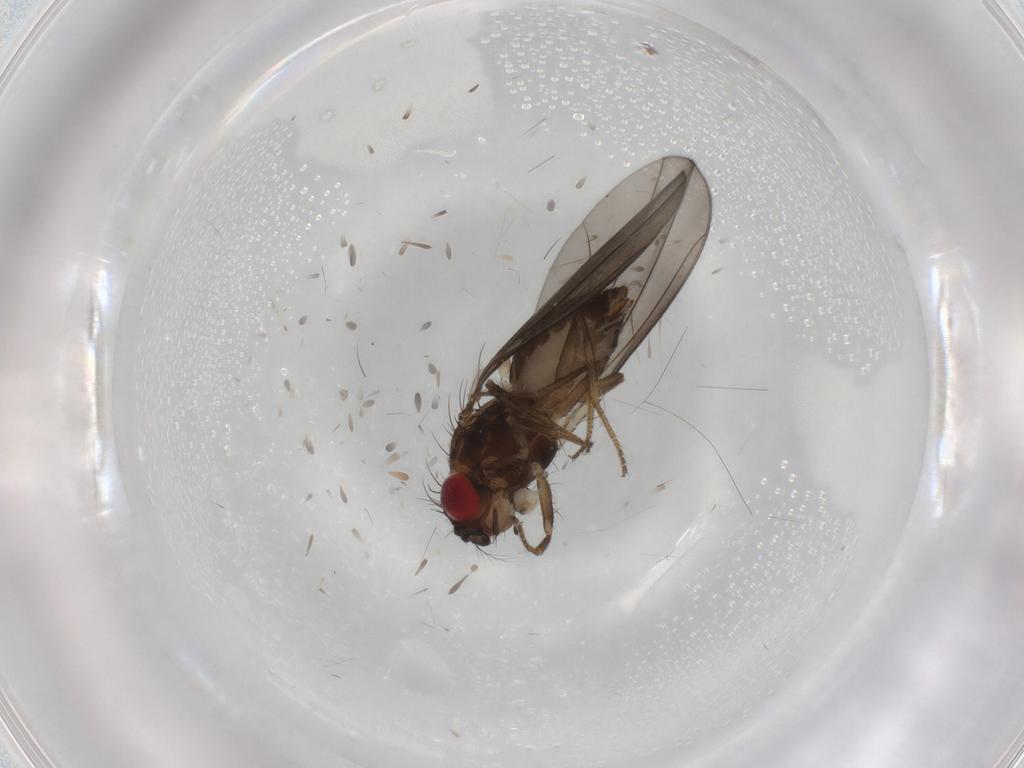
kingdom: Animalia
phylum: Arthropoda
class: Insecta
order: Diptera
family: Drosophilidae
